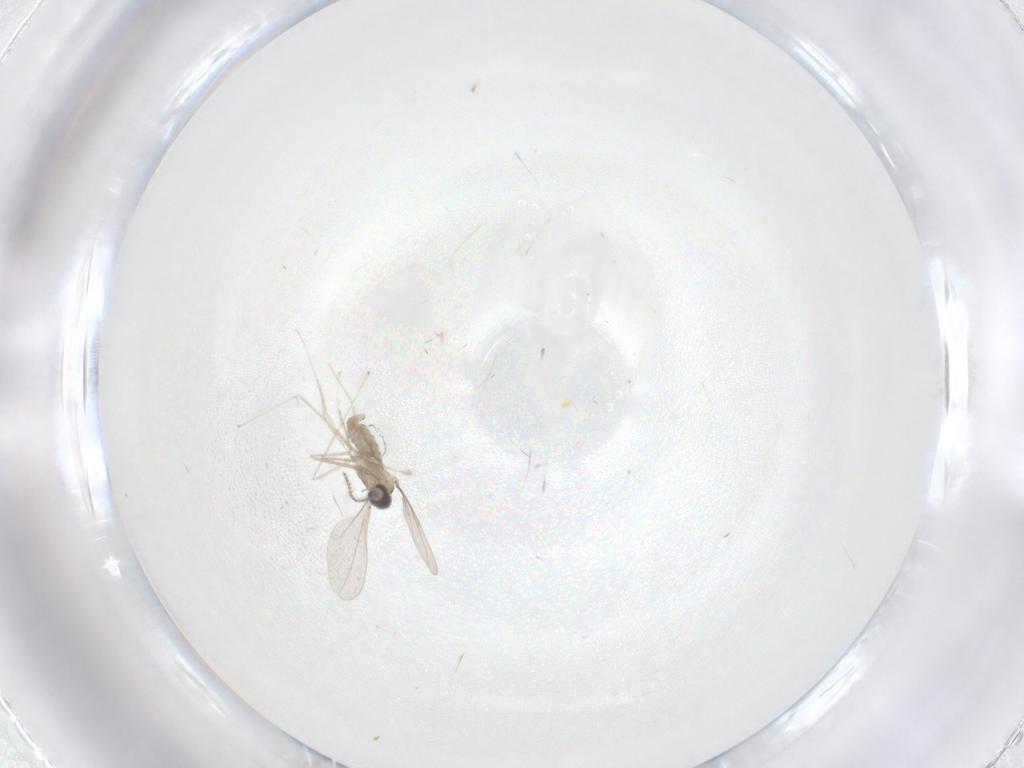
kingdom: Animalia
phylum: Arthropoda
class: Insecta
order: Diptera
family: Cecidomyiidae
